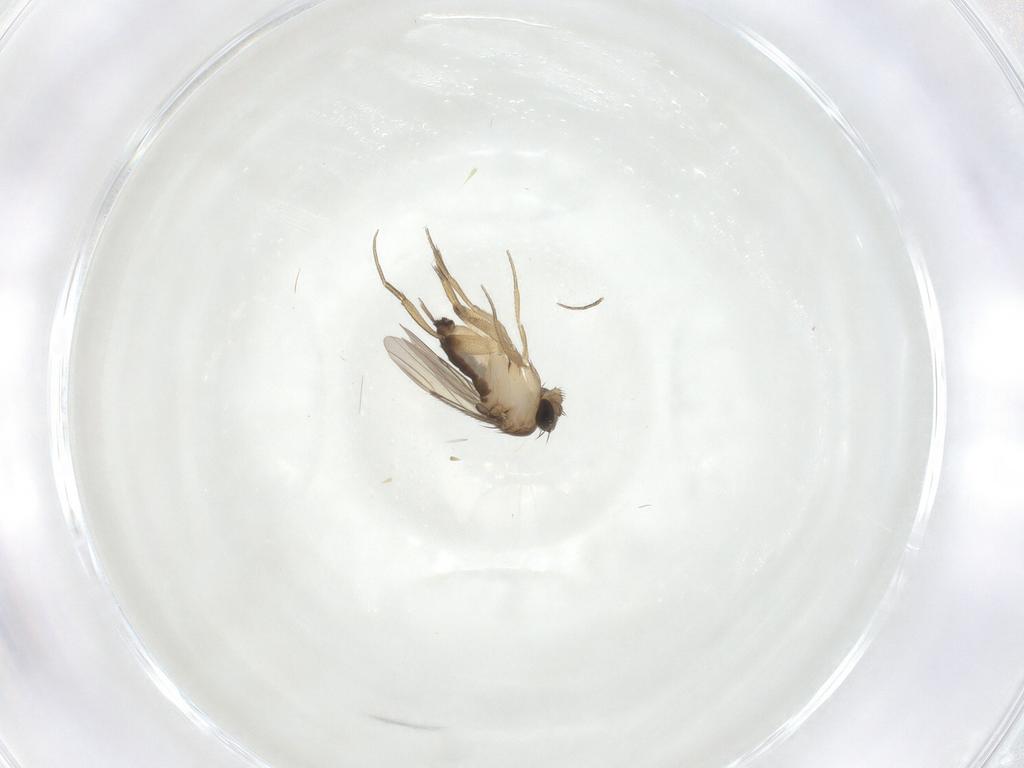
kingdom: Animalia
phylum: Arthropoda
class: Insecta
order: Diptera
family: Phoridae
